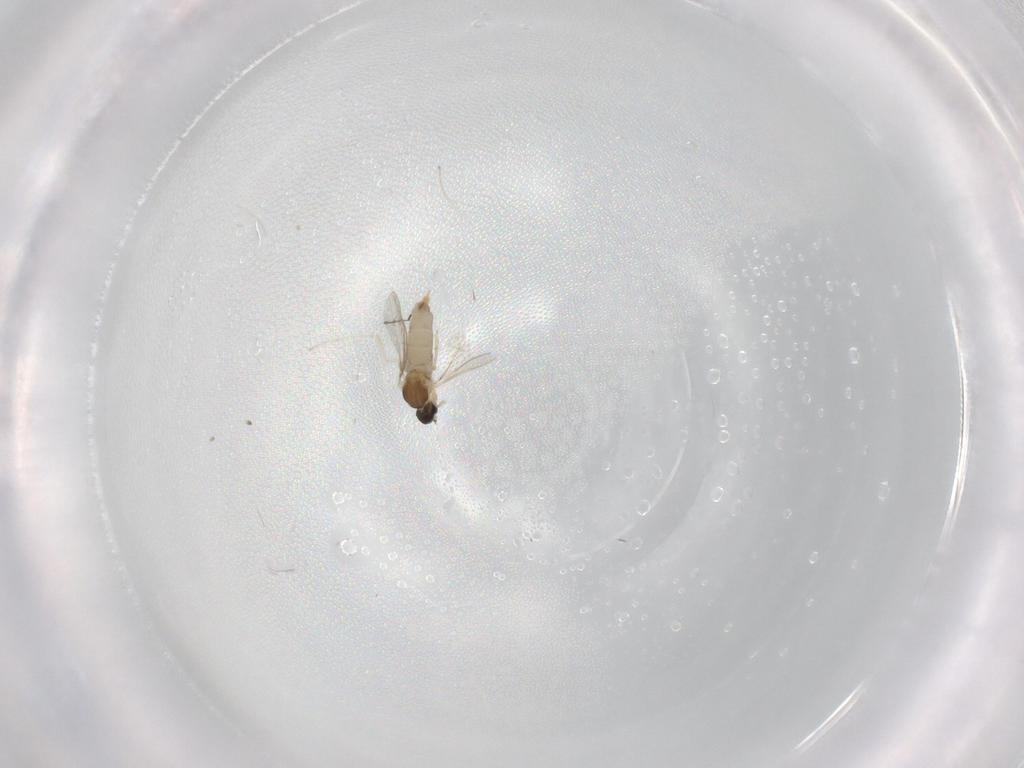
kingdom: Animalia
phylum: Arthropoda
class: Insecta
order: Diptera
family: Cecidomyiidae
